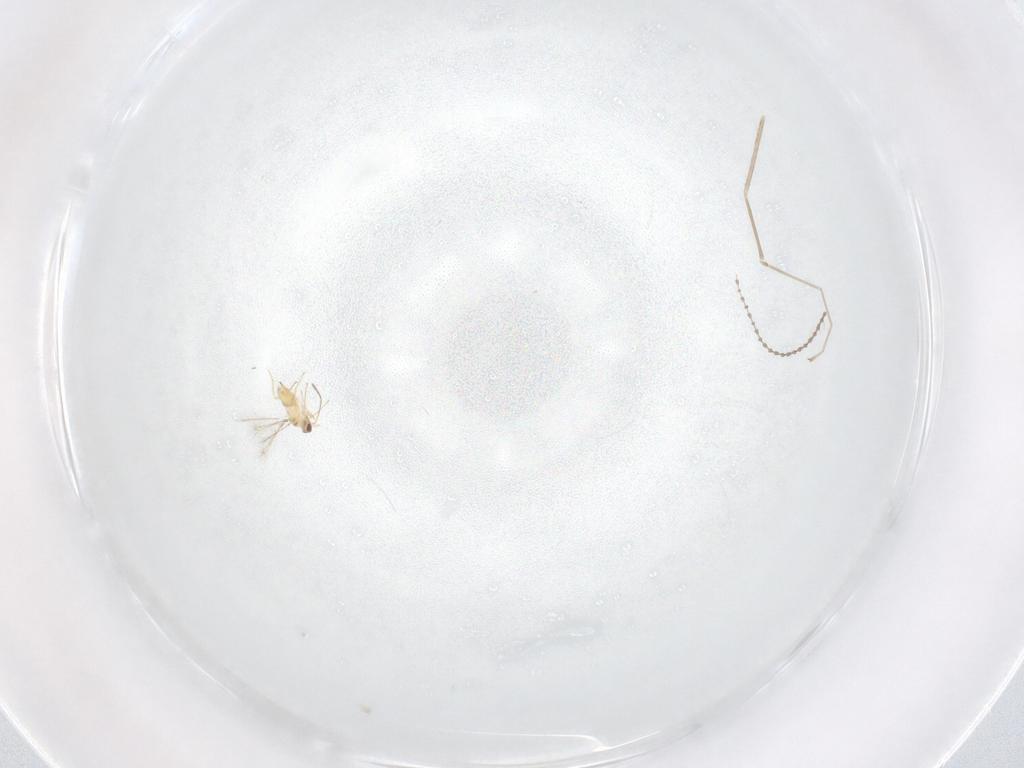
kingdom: Animalia
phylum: Arthropoda
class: Insecta
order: Hymenoptera
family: Mymaridae
